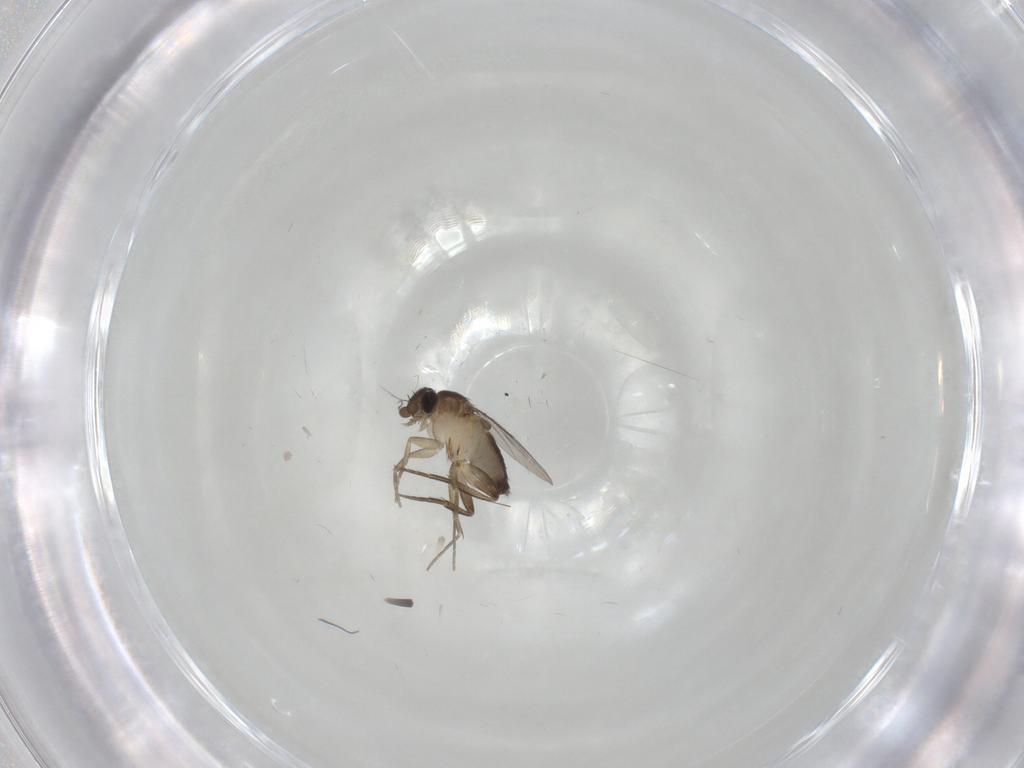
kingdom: Animalia
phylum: Arthropoda
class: Insecta
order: Diptera
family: Phoridae
